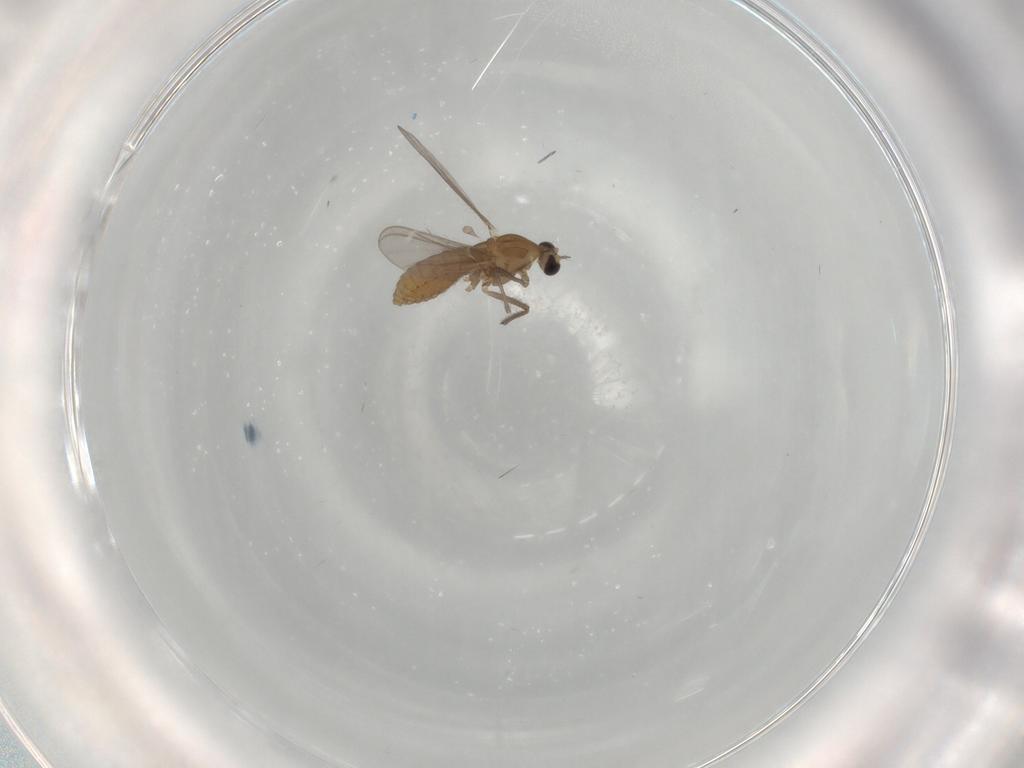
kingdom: Animalia
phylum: Arthropoda
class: Insecta
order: Diptera
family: Chironomidae
